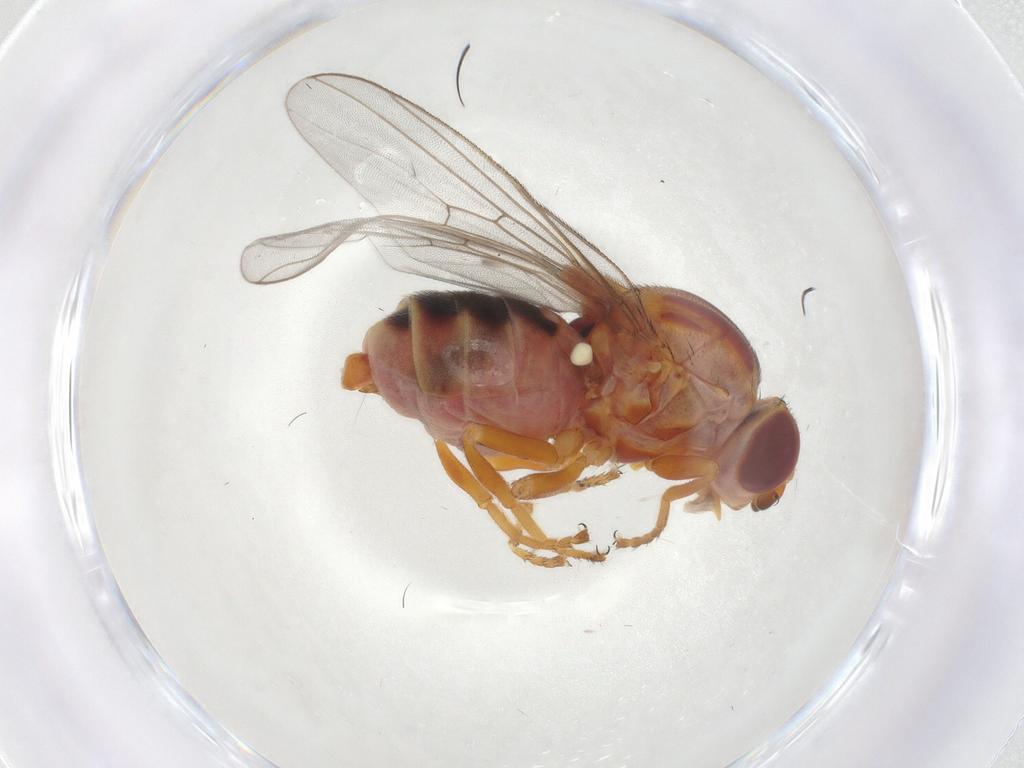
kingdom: Animalia
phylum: Arthropoda
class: Insecta
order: Diptera
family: Chloropidae
